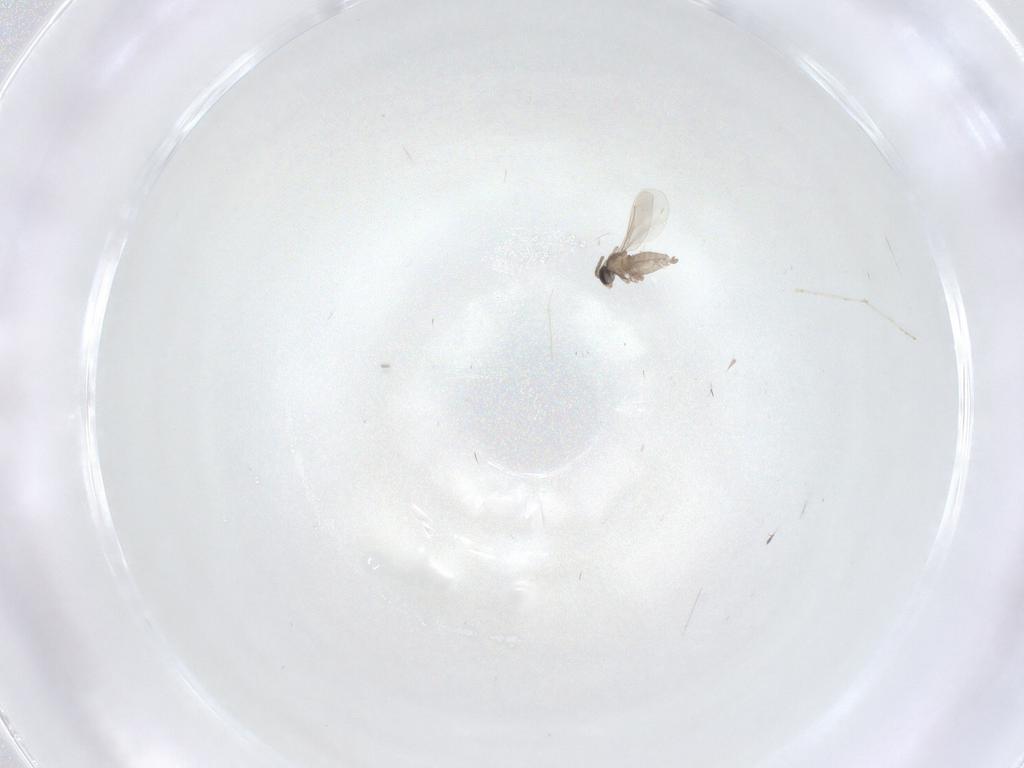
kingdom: Animalia
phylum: Arthropoda
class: Insecta
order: Diptera
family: Cecidomyiidae
